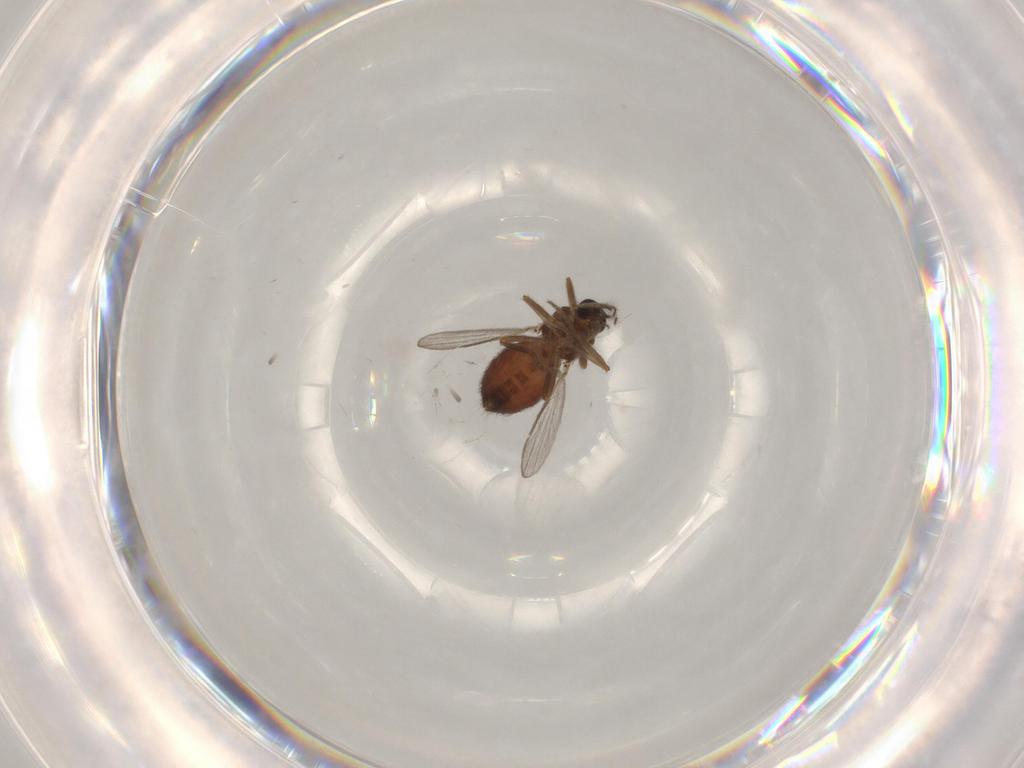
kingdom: Animalia
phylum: Arthropoda
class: Insecta
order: Diptera
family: Ceratopogonidae
